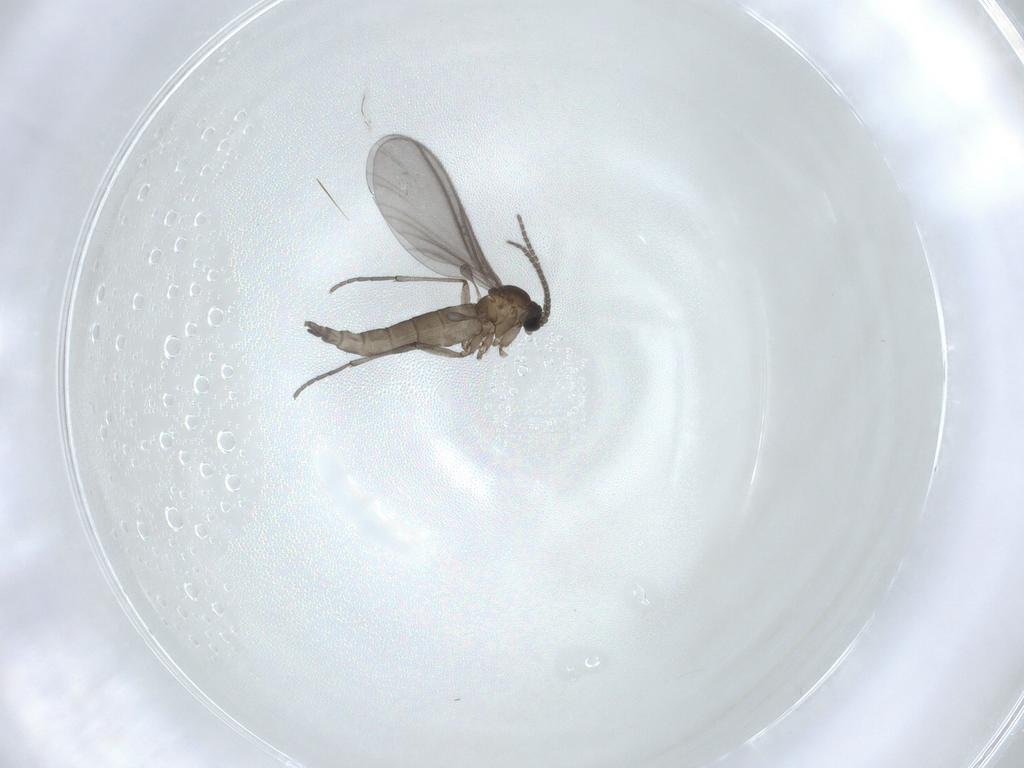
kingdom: Animalia
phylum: Arthropoda
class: Insecta
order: Diptera
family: Sciaridae
